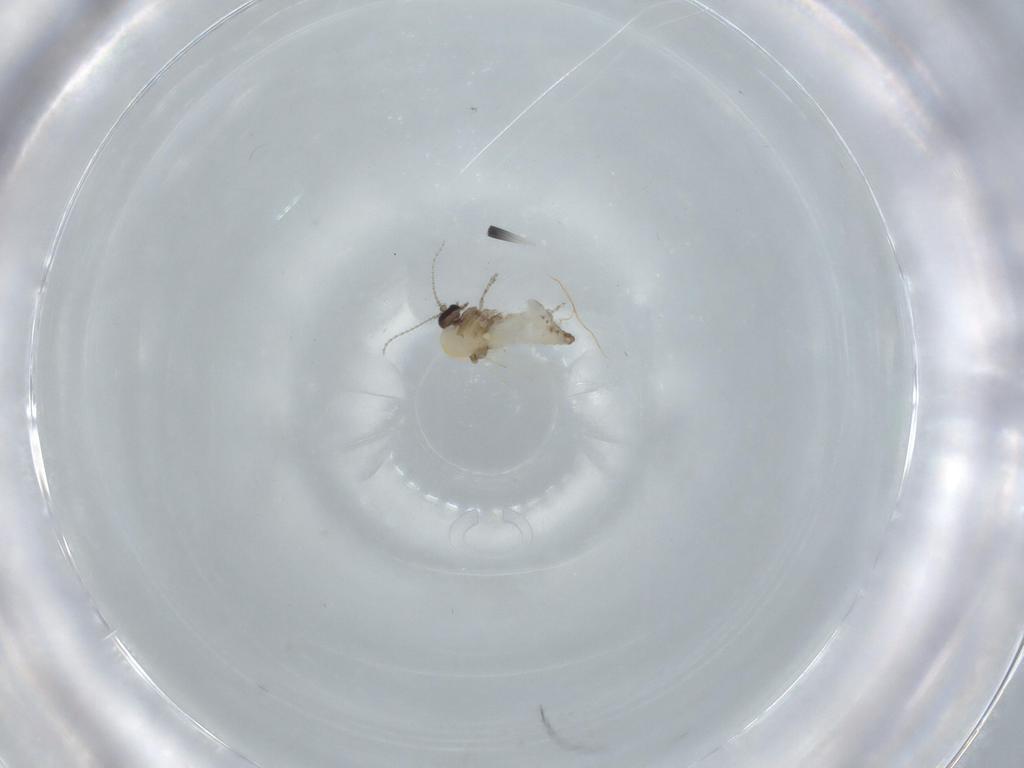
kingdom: Animalia
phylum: Arthropoda
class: Insecta
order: Diptera
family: Ceratopogonidae
